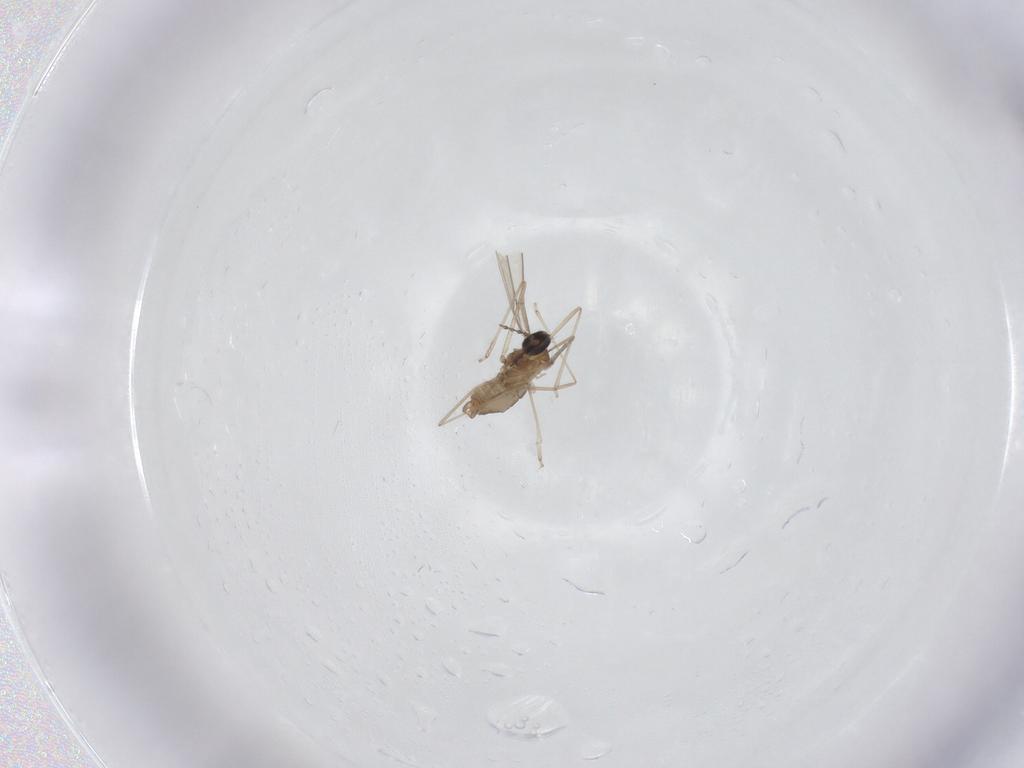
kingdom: Animalia
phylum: Arthropoda
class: Insecta
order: Diptera
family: Cecidomyiidae
